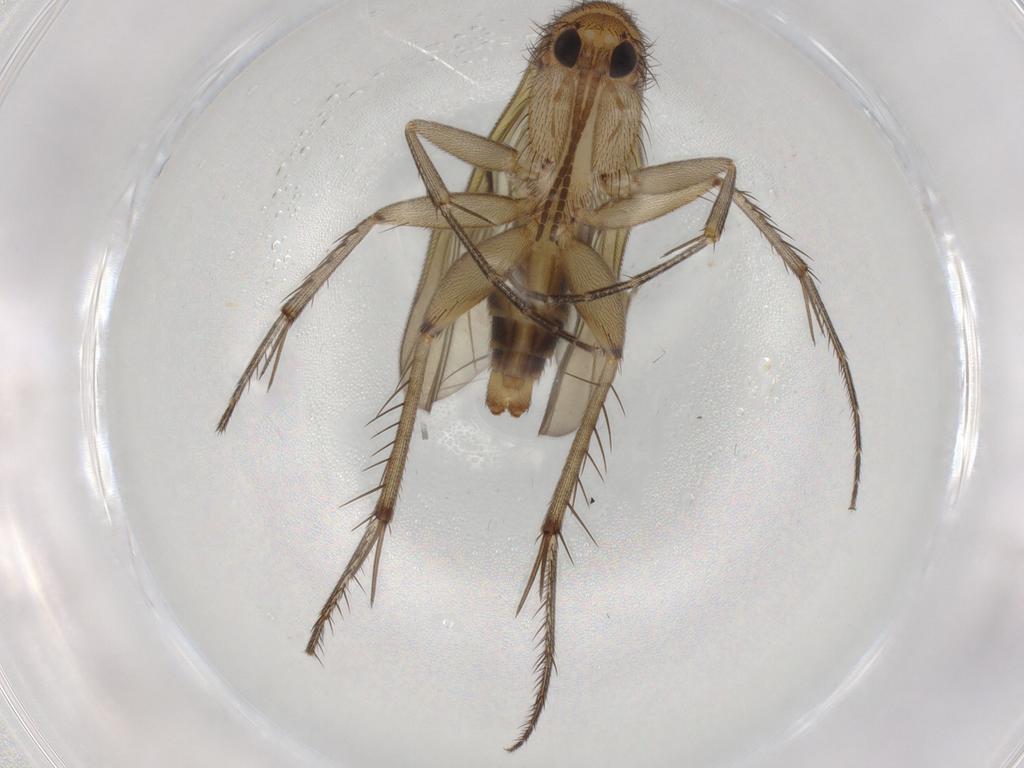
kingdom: Animalia
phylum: Arthropoda
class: Insecta
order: Diptera
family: Mycetophilidae
